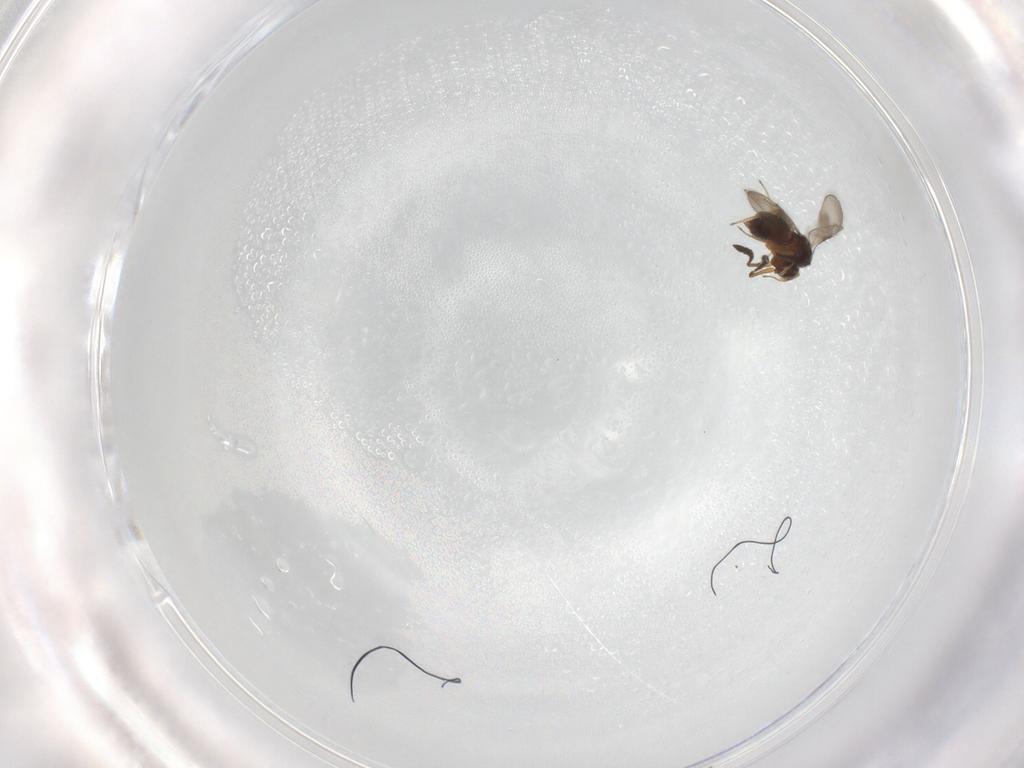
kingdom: Animalia
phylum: Arthropoda
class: Insecta
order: Hymenoptera
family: Ceraphronidae
